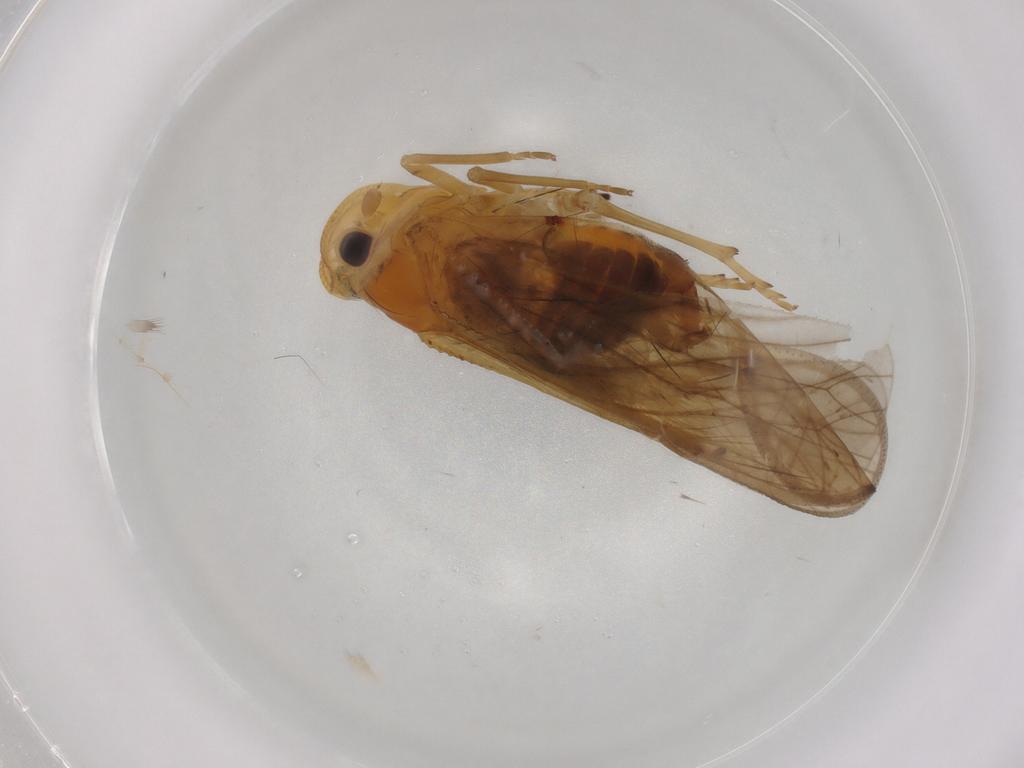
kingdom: Animalia
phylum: Arthropoda
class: Insecta
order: Hemiptera
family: Meenoplidae
